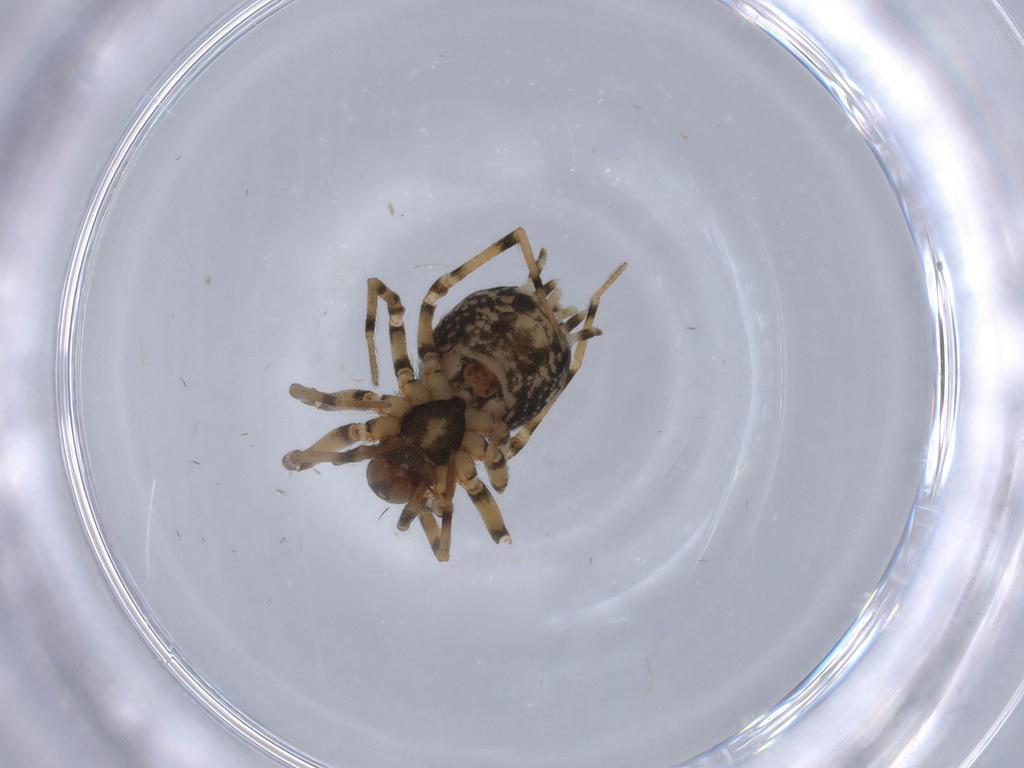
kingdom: Animalia
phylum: Arthropoda
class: Arachnida
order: Araneae
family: Hahniidae
